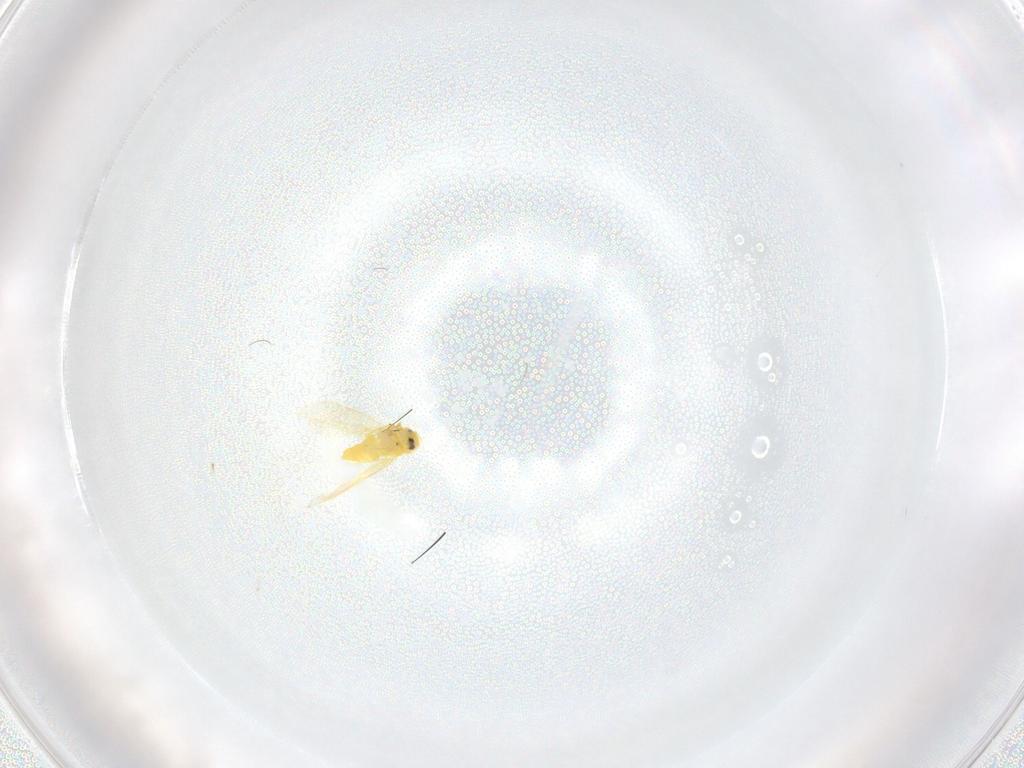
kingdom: Animalia
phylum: Arthropoda
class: Insecta
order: Hemiptera
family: Aleyrodidae
